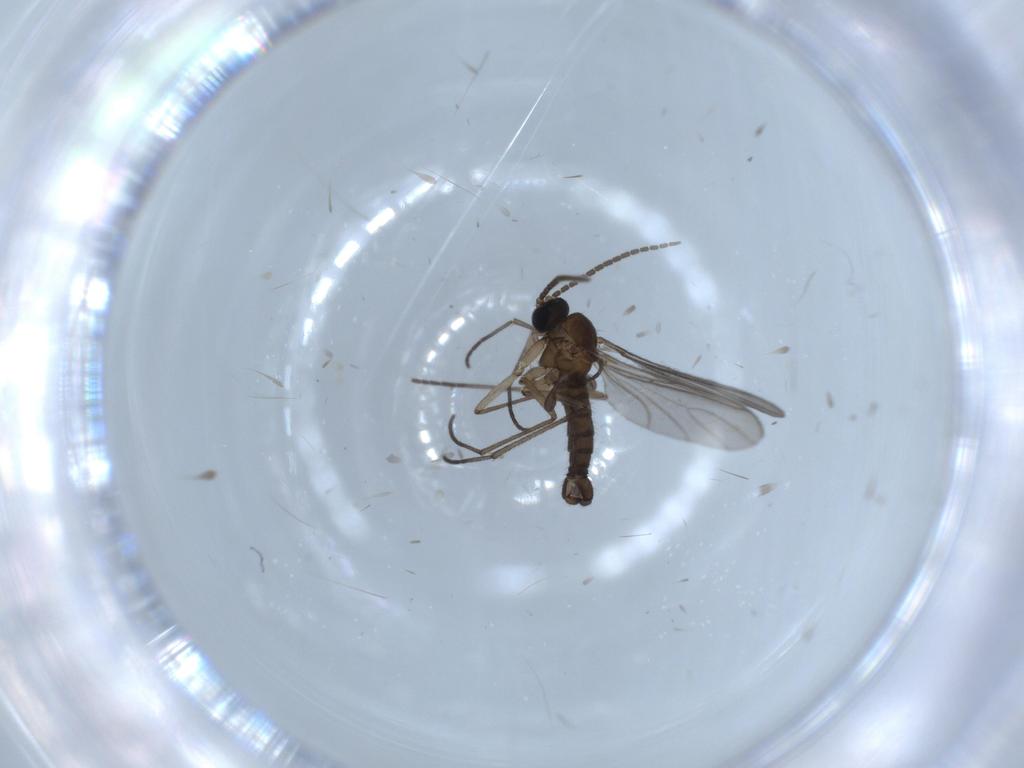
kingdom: Animalia
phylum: Arthropoda
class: Insecta
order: Diptera
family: Sciaridae
